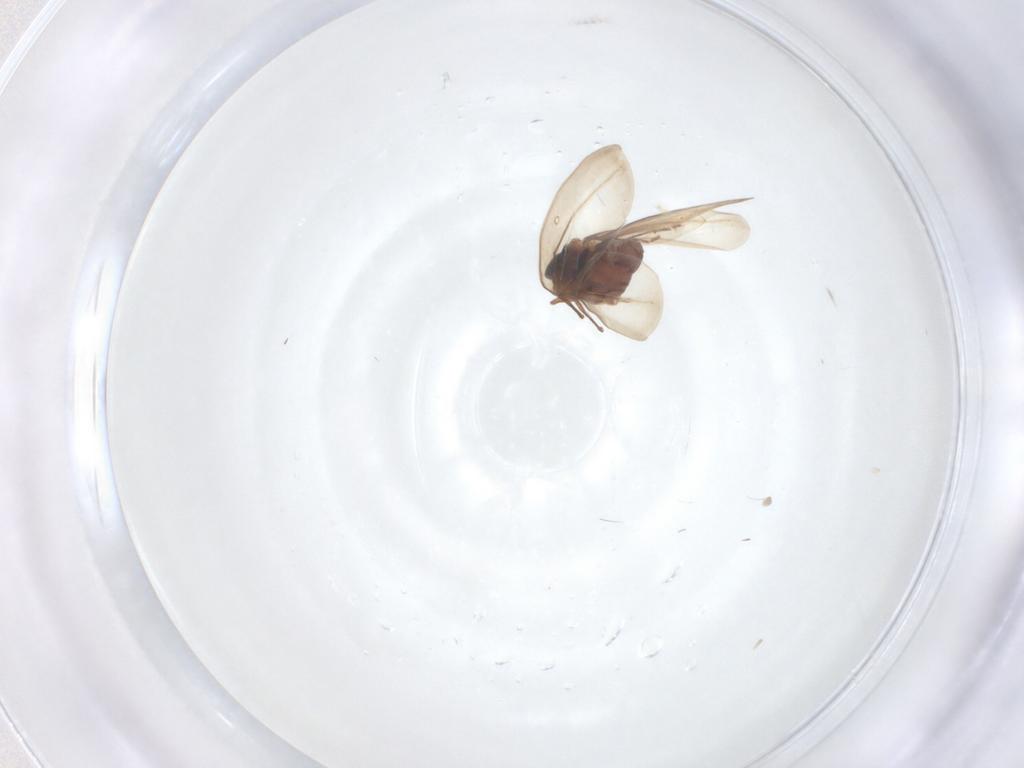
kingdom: Animalia
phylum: Arthropoda
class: Insecta
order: Hemiptera
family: Aleyrodidae
